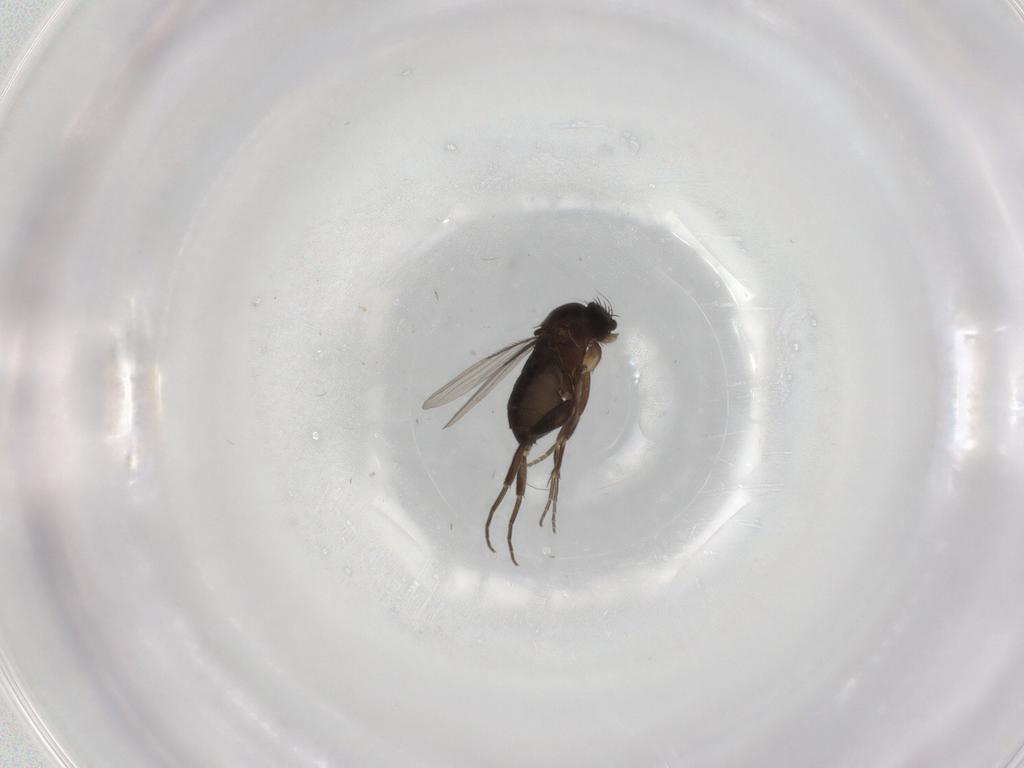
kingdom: Animalia
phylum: Arthropoda
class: Insecta
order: Diptera
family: Phoridae
